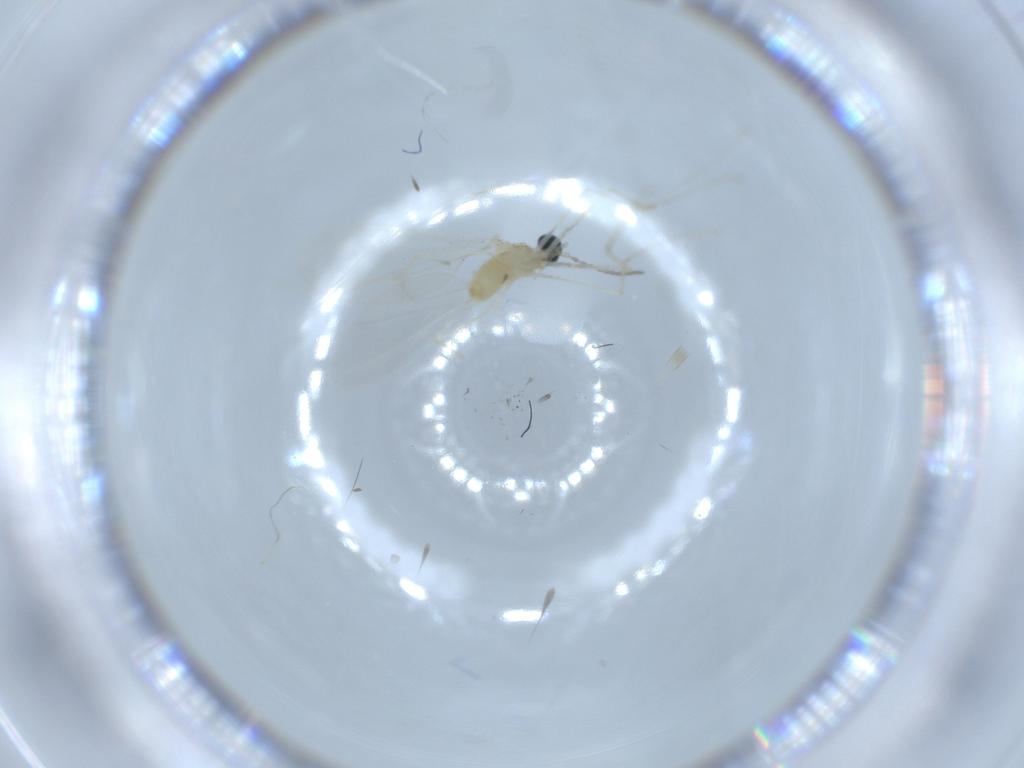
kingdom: Animalia
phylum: Arthropoda
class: Insecta
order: Diptera
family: Cecidomyiidae
